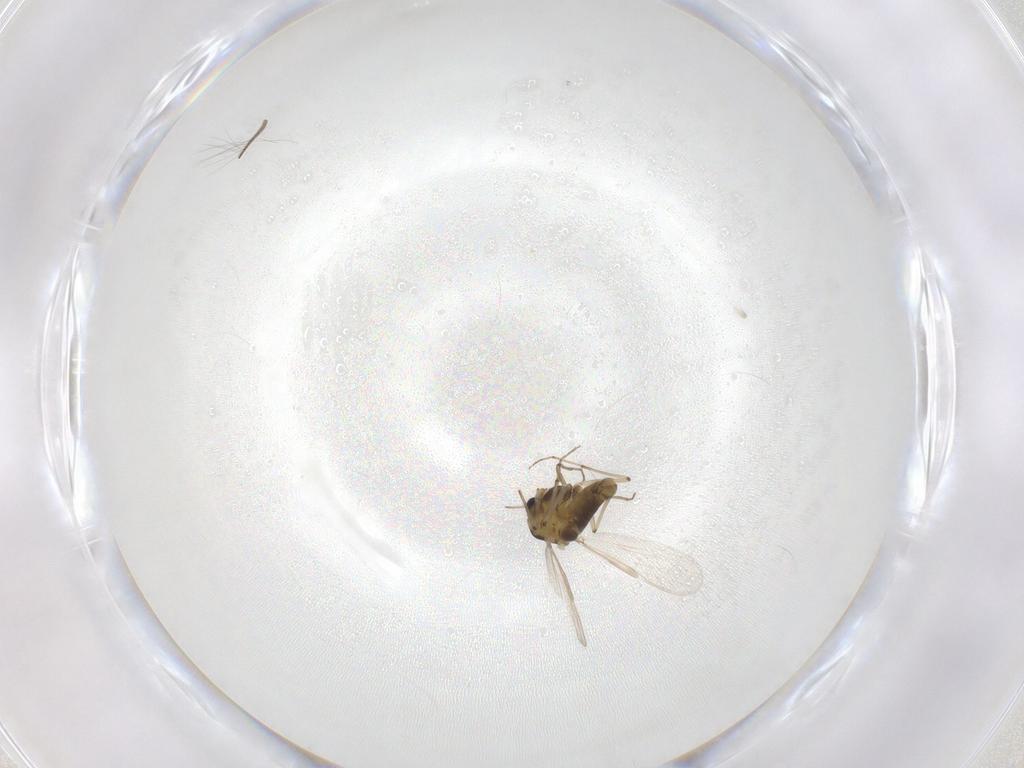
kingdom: Animalia
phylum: Arthropoda
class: Insecta
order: Diptera
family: Chironomidae
